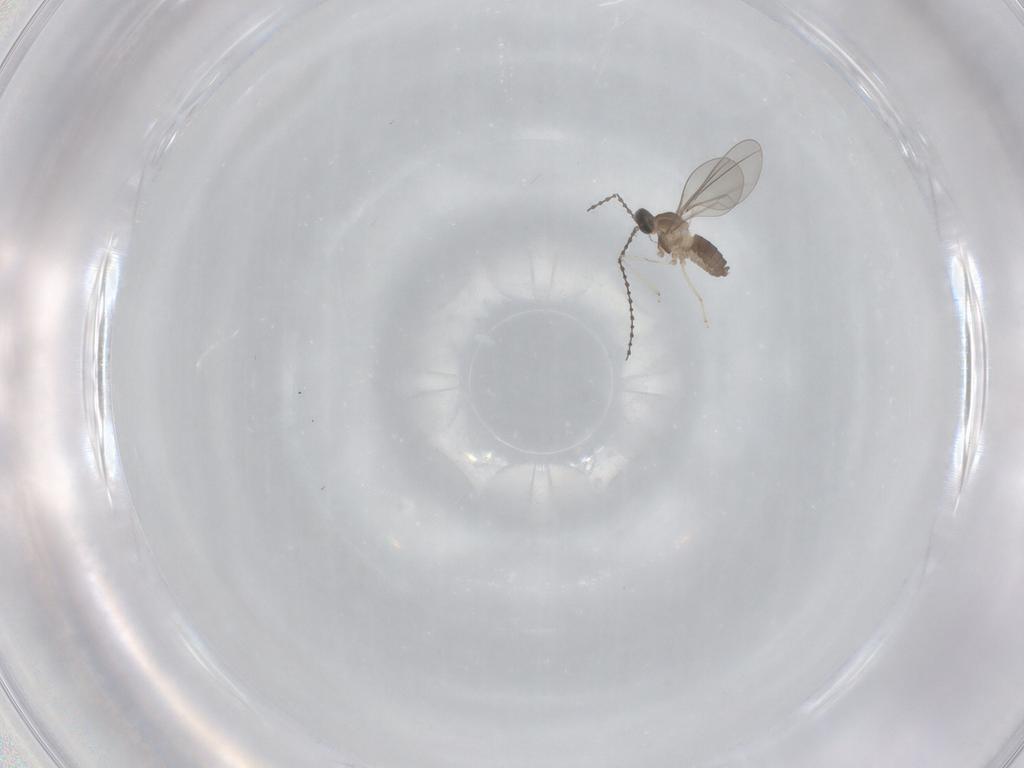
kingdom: Animalia
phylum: Arthropoda
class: Insecta
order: Diptera
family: Cecidomyiidae
